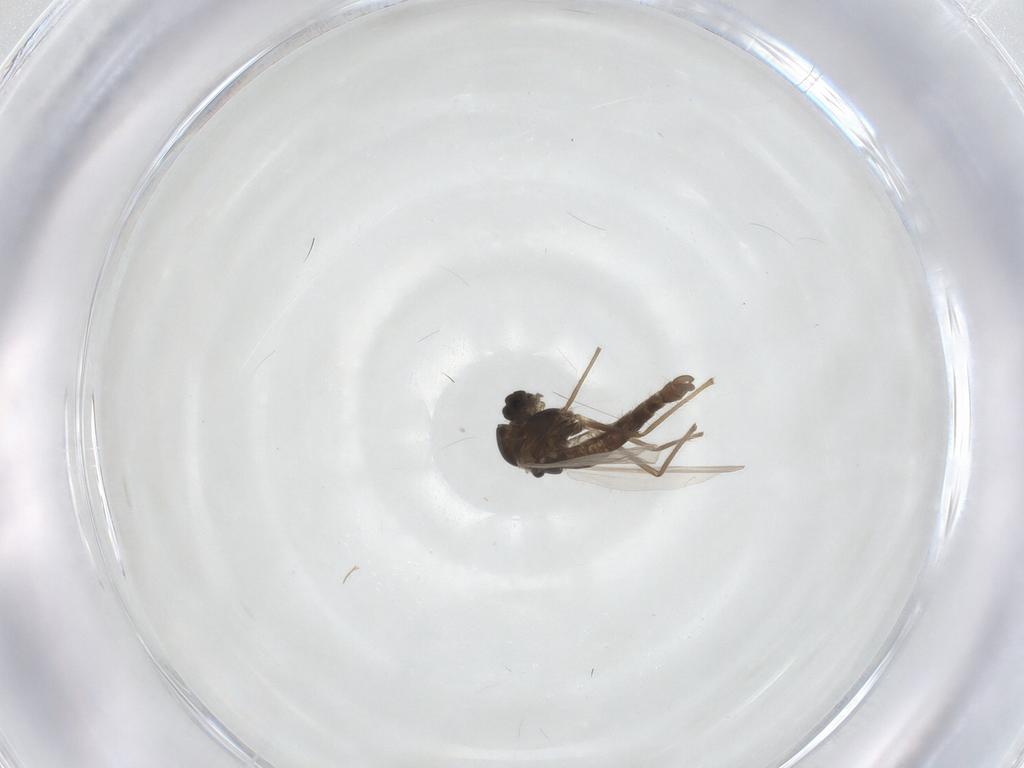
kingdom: Animalia
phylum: Arthropoda
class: Insecta
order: Diptera
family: Chironomidae
